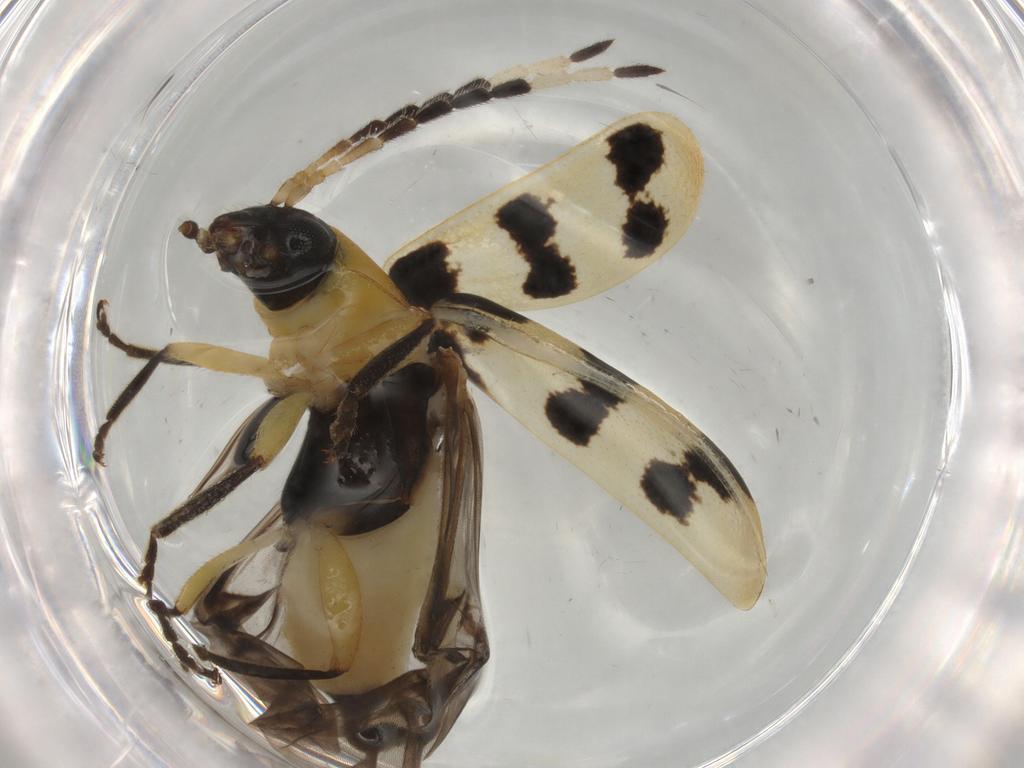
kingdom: Animalia
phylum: Arthropoda
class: Insecta
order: Coleoptera
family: Chrysomelidae
